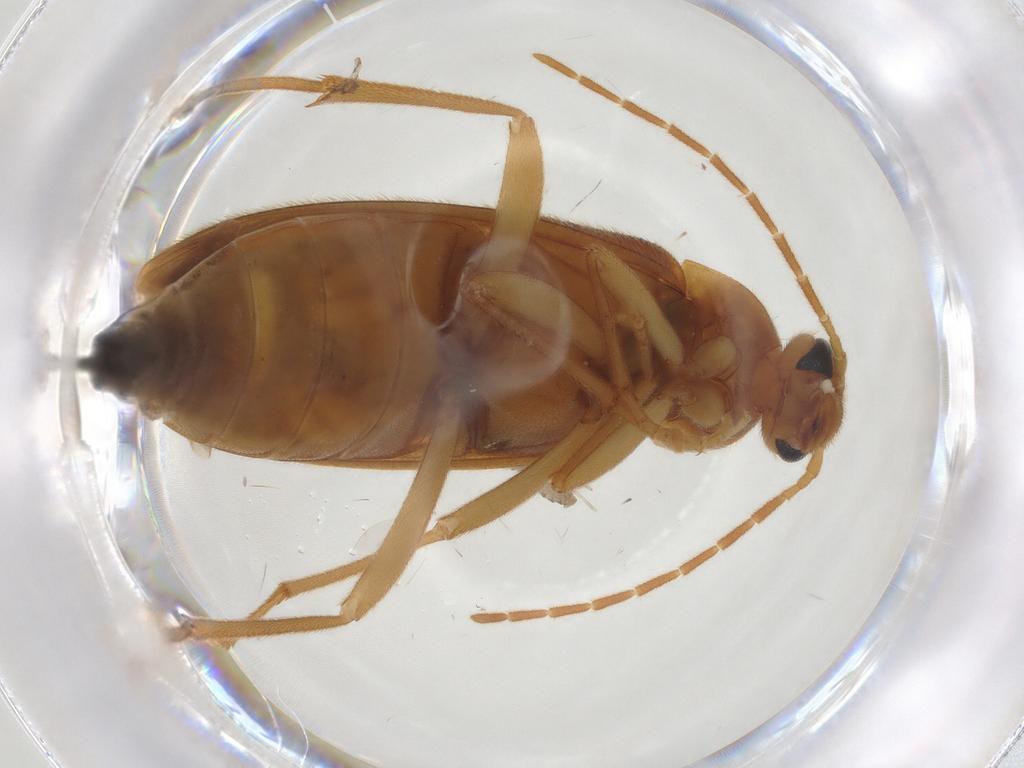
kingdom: Animalia
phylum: Arthropoda
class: Insecta
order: Coleoptera
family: Scraptiidae
